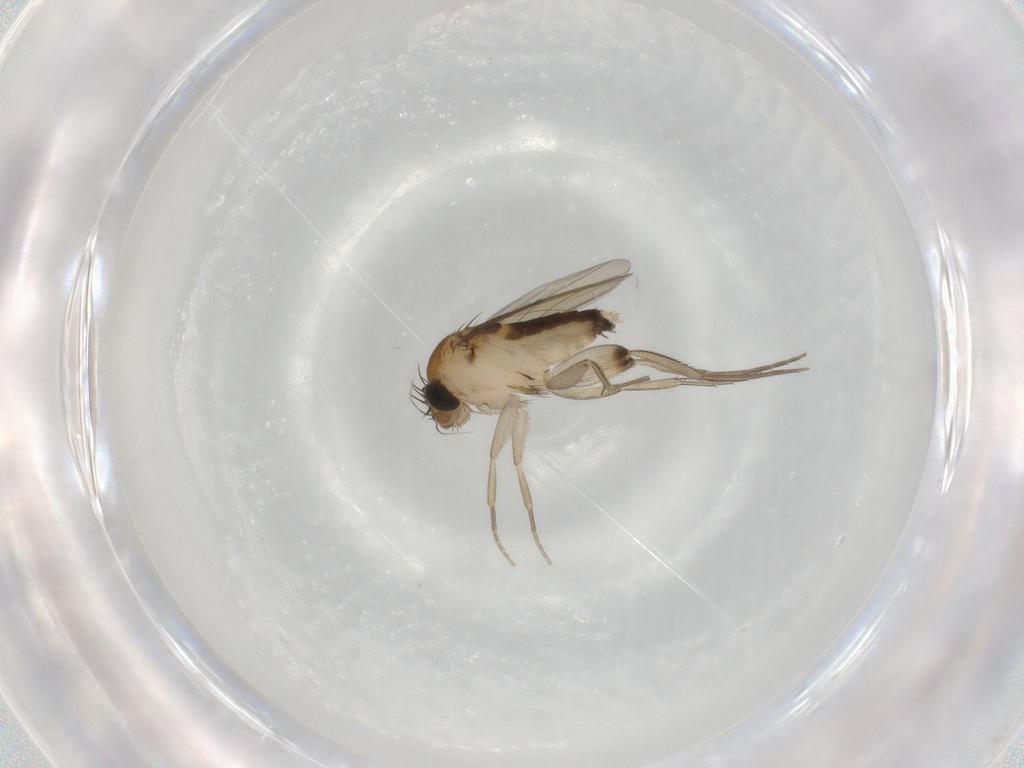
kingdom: Animalia
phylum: Arthropoda
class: Insecta
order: Diptera
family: Phoridae
